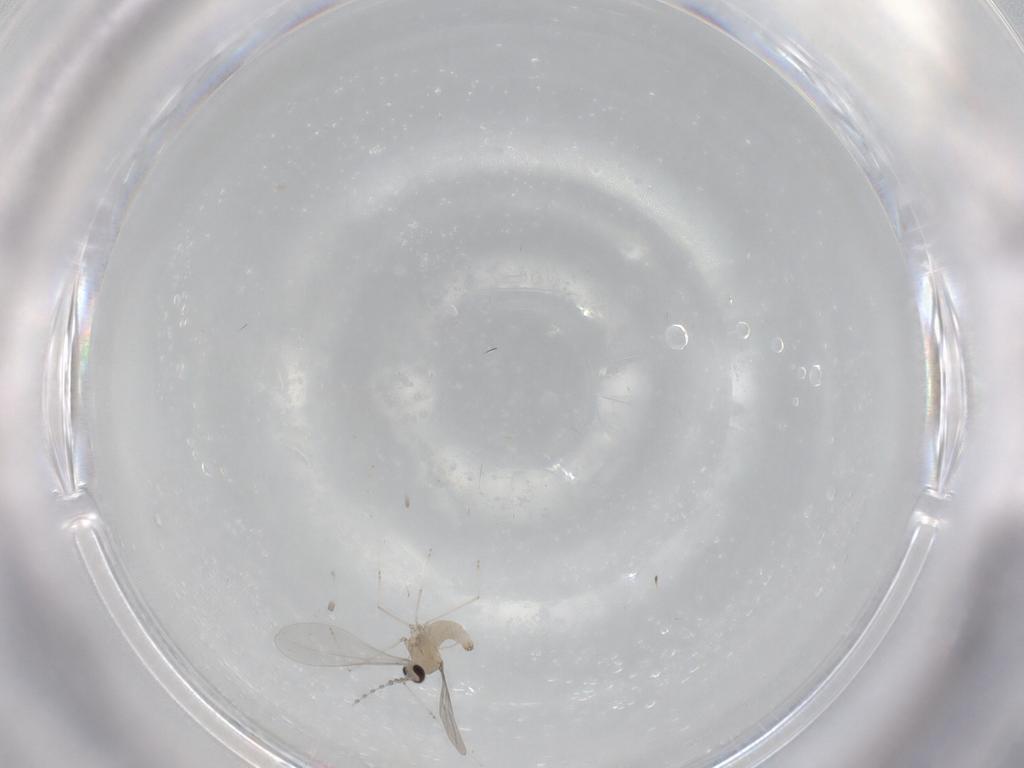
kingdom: Animalia
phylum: Arthropoda
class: Insecta
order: Diptera
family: Cecidomyiidae
